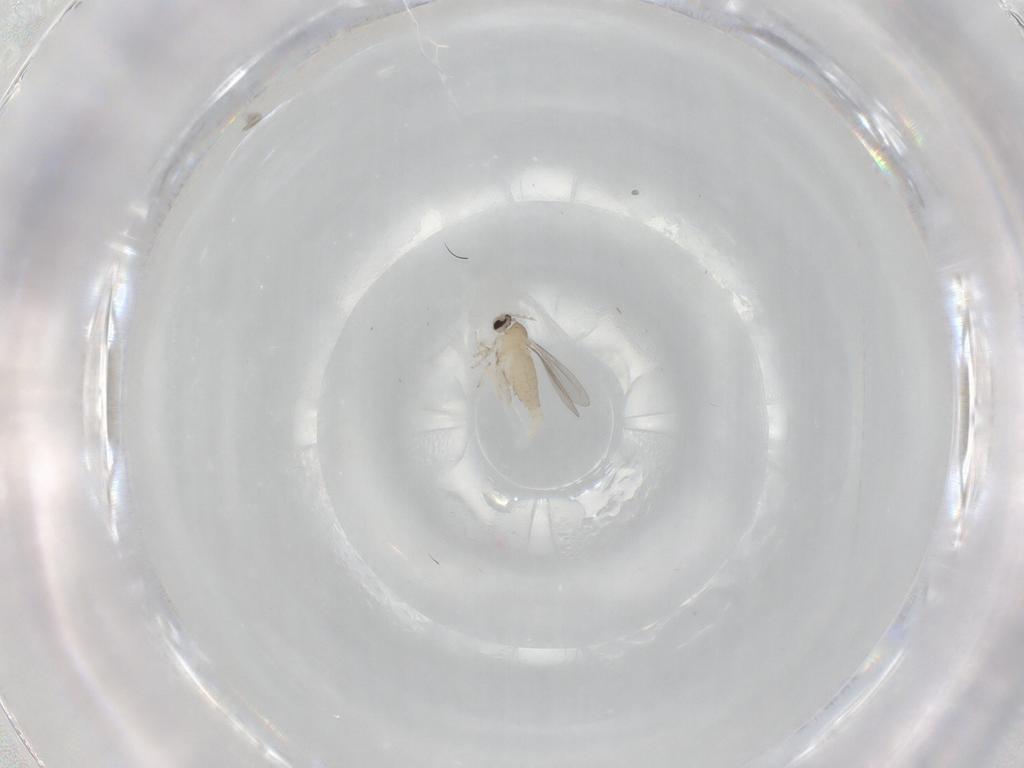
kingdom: Animalia
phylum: Arthropoda
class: Insecta
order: Diptera
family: Cecidomyiidae
